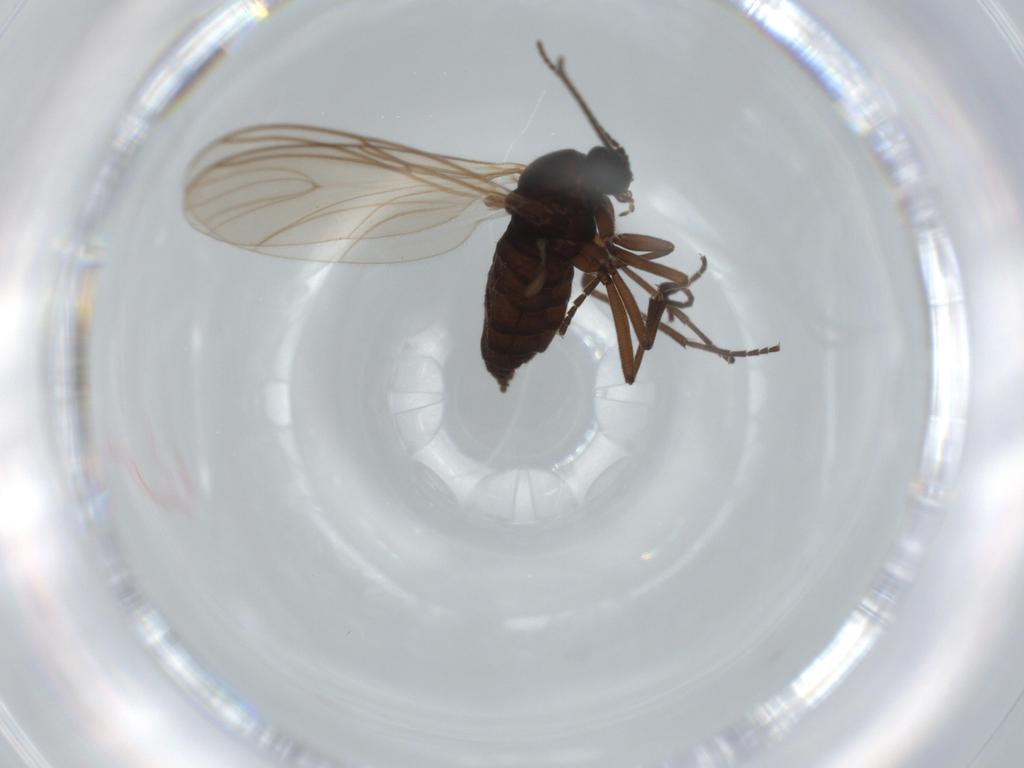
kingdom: Animalia
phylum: Arthropoda
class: Insecta
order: Diptera
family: Sciaridae
